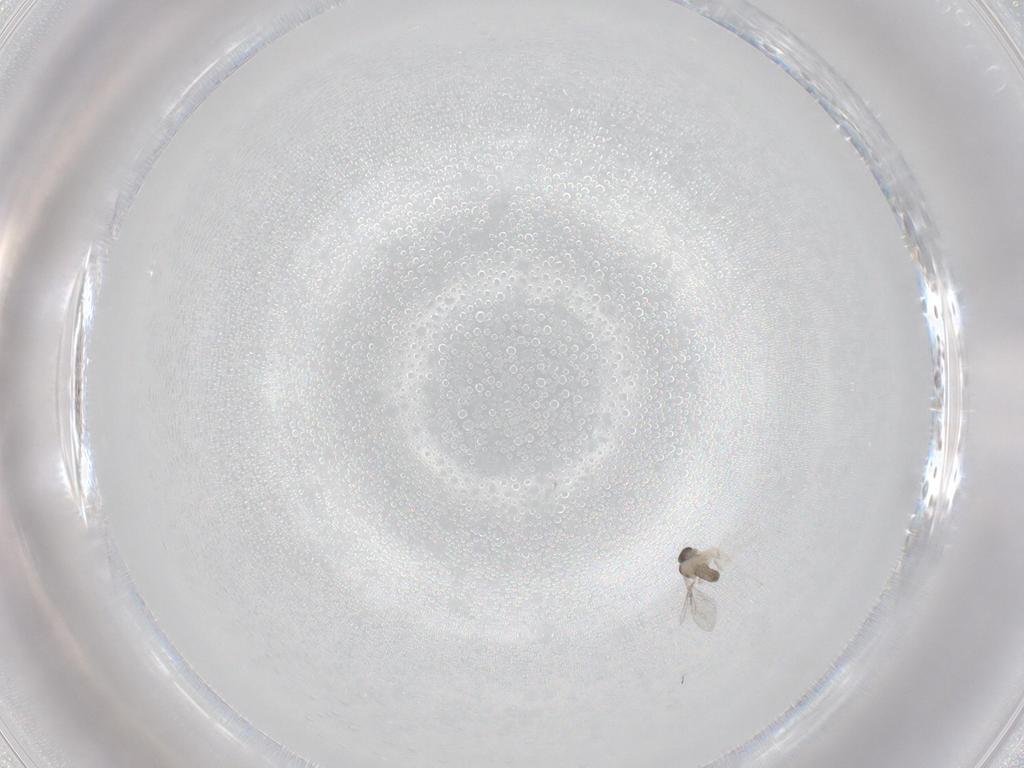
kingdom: Animalia
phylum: Arthropoda
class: Insecta
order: Diptera
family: Cecidomyiidae
